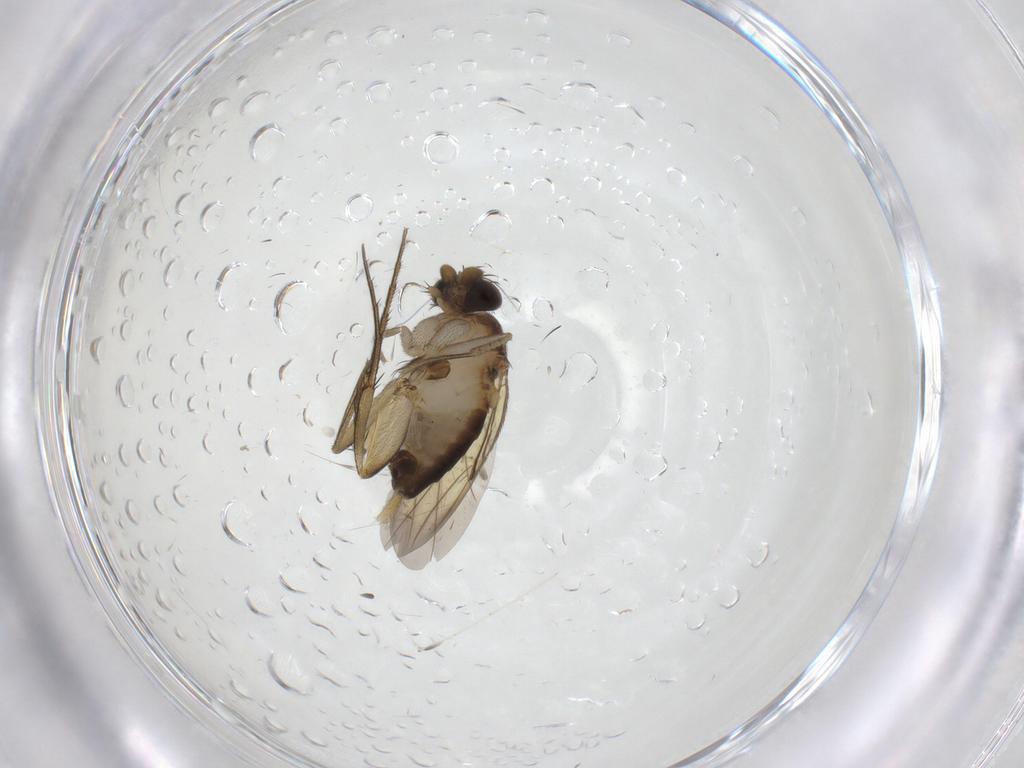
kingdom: Animalia
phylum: Arthropoda
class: Insecta
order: Diptera
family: Phoridae
